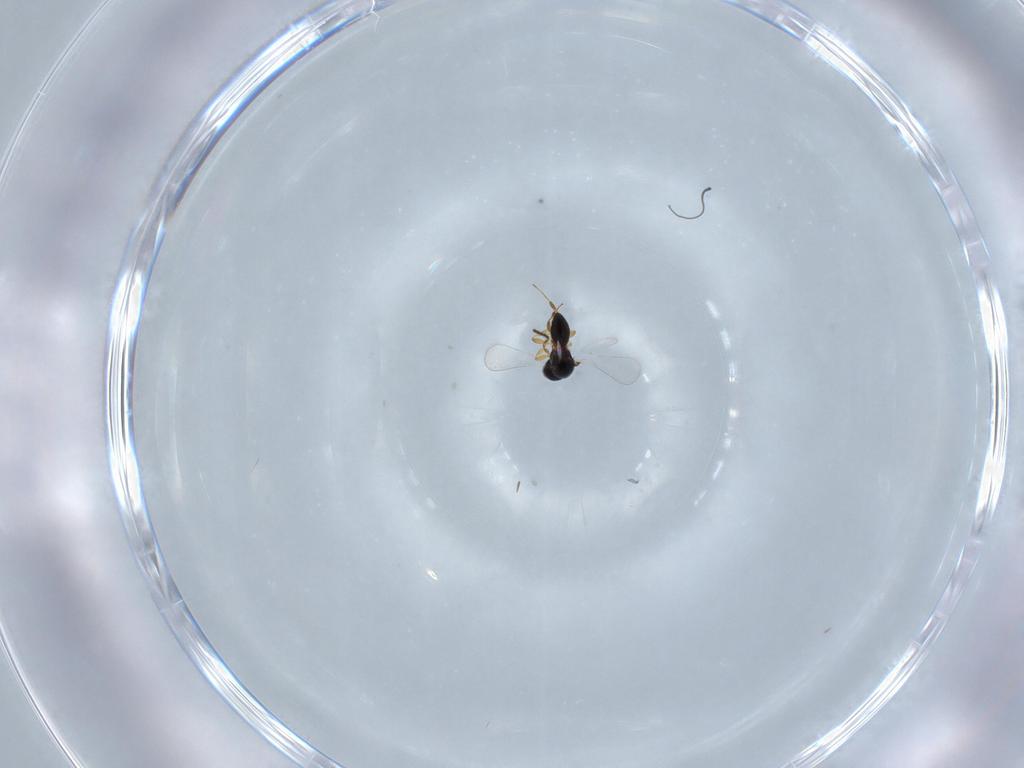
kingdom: Animalia
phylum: Arthropoda
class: Insecta
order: Hymenoptera
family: Platygastridae
